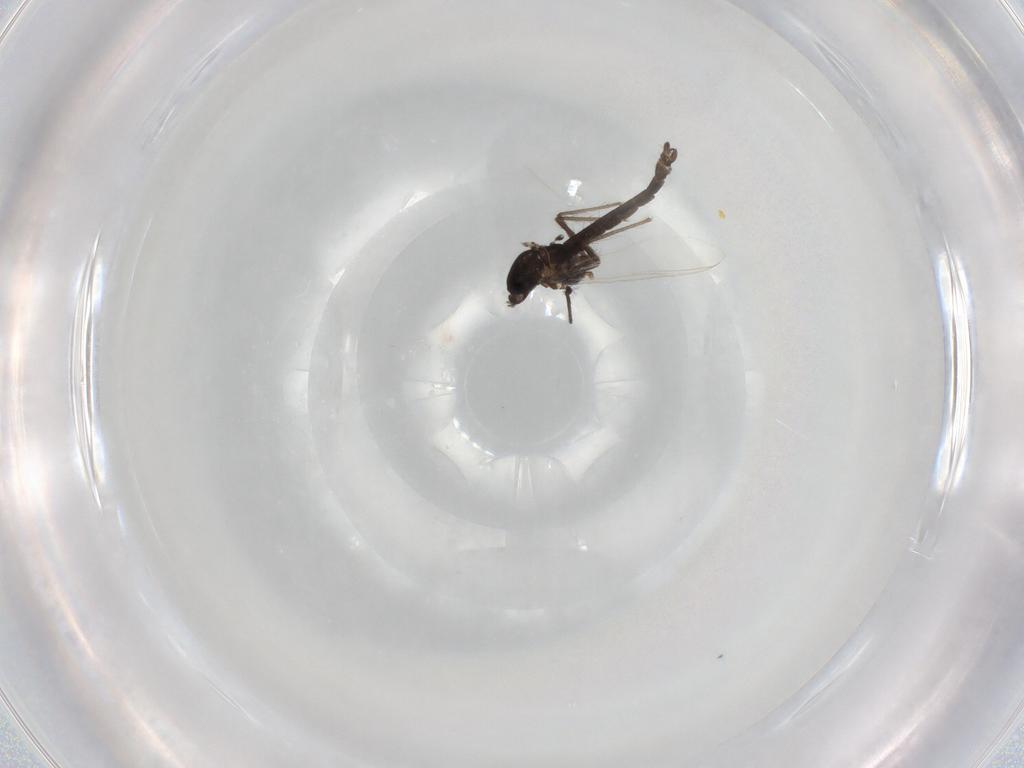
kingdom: Animalia
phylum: Arthropoda
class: Insecta
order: Diptera
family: Chironomidae
